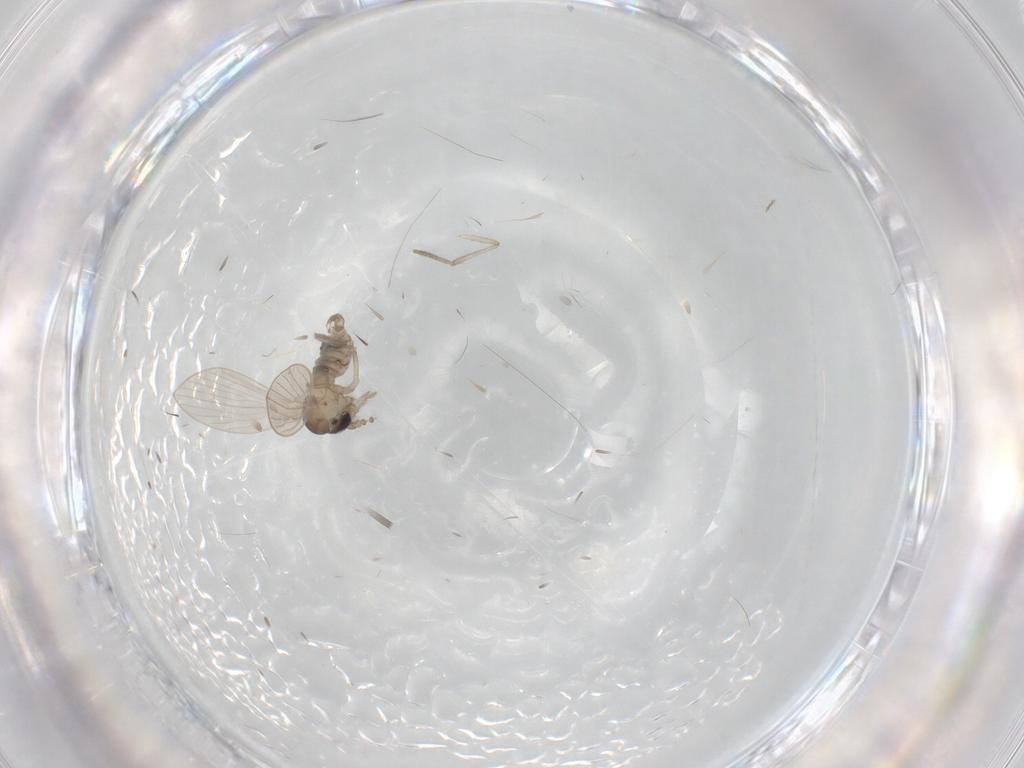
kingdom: Animalia
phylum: Arthropoda
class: Insecta
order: Diptera
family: Chironomidae
